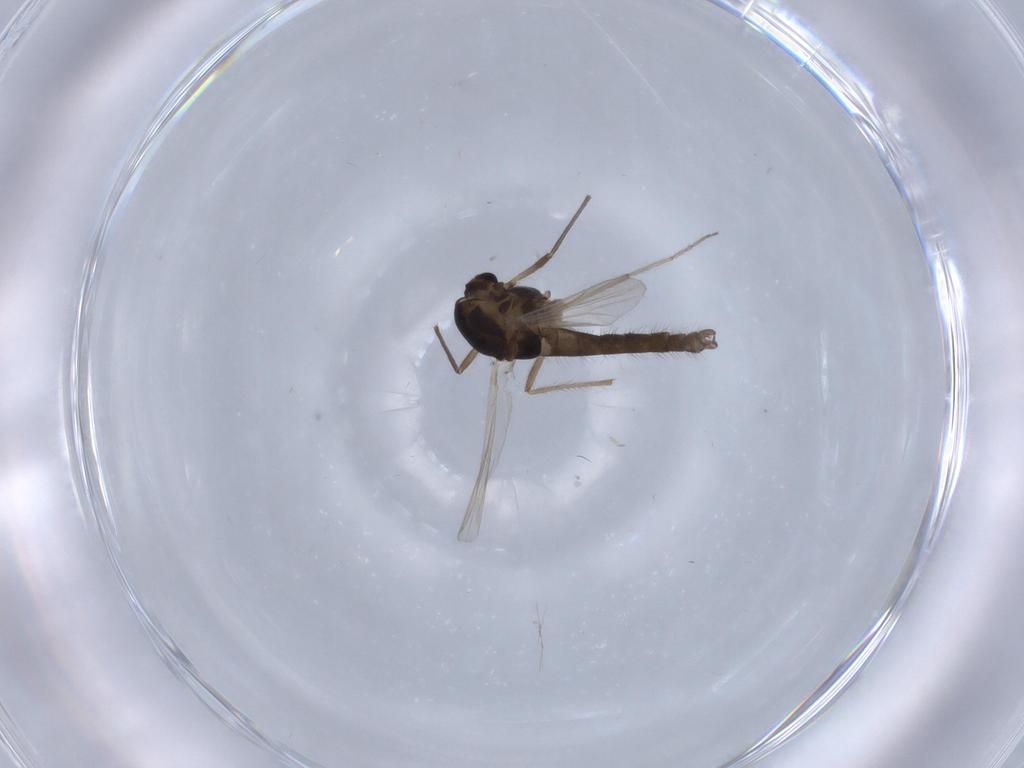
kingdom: Animalia
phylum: Arthropoda
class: Insecta
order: Diptera
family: Chironomidae
